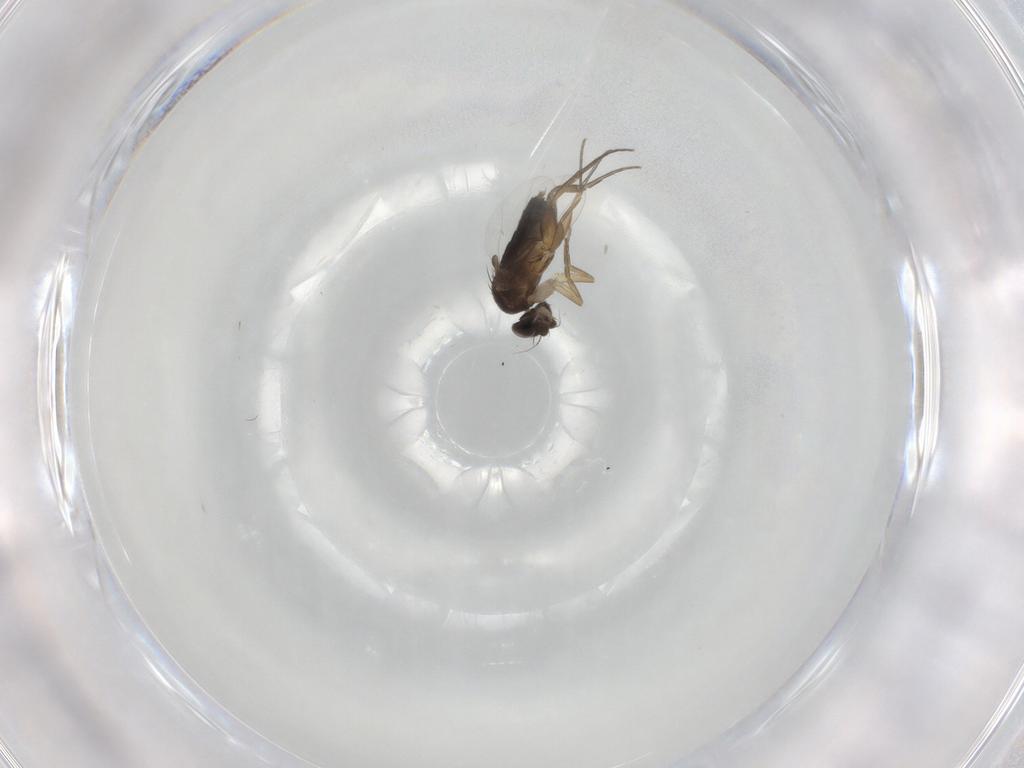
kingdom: Animalia
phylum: Arthropoda
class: Insecta
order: Diptera
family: Phoridae
